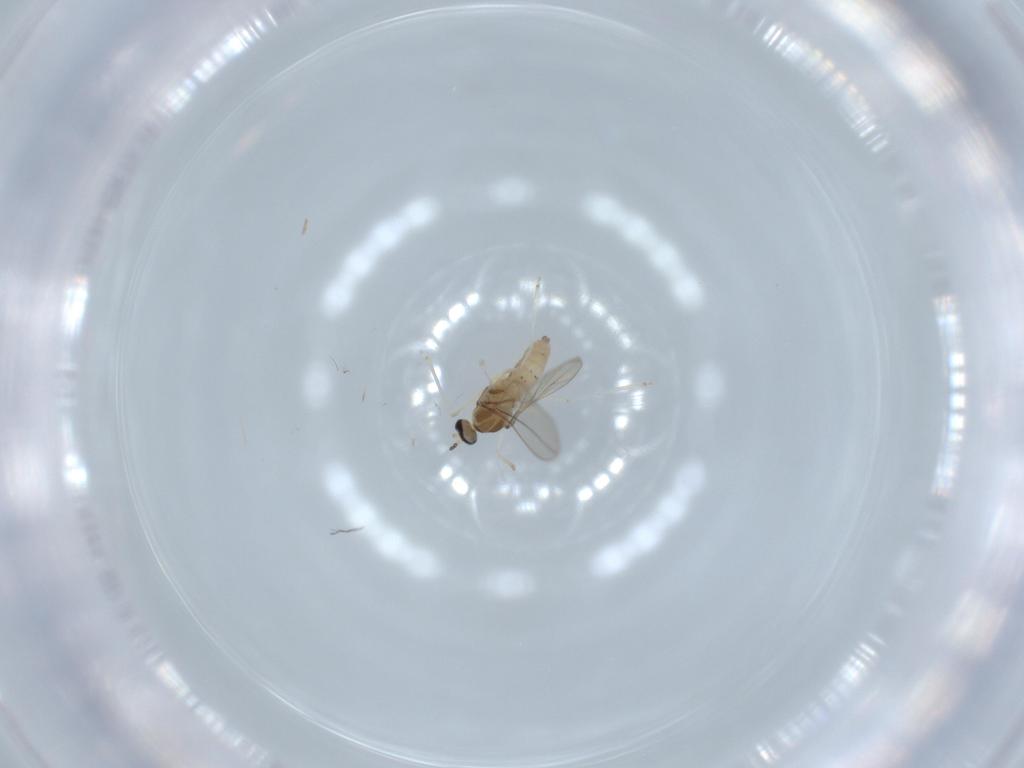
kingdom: Animalia
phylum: Arthropoda
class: Insecta
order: Diptera
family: Cecidomyiidae
